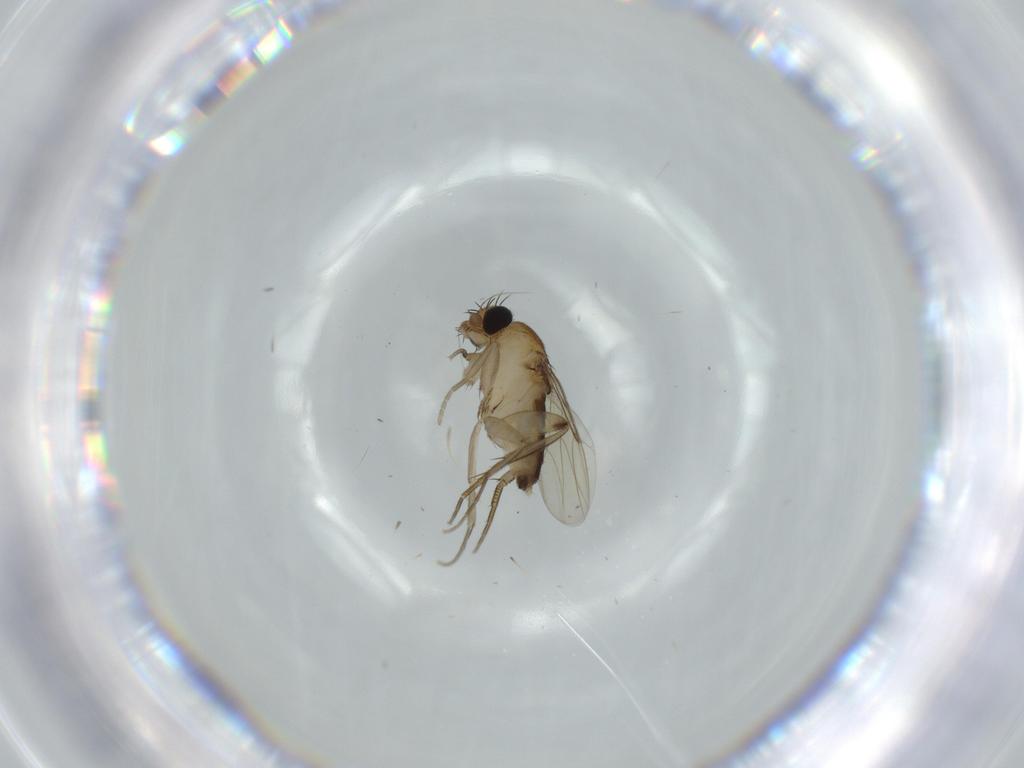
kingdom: Animalia
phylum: Arthropoda
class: Insecta
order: Diptera
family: Phoridae
